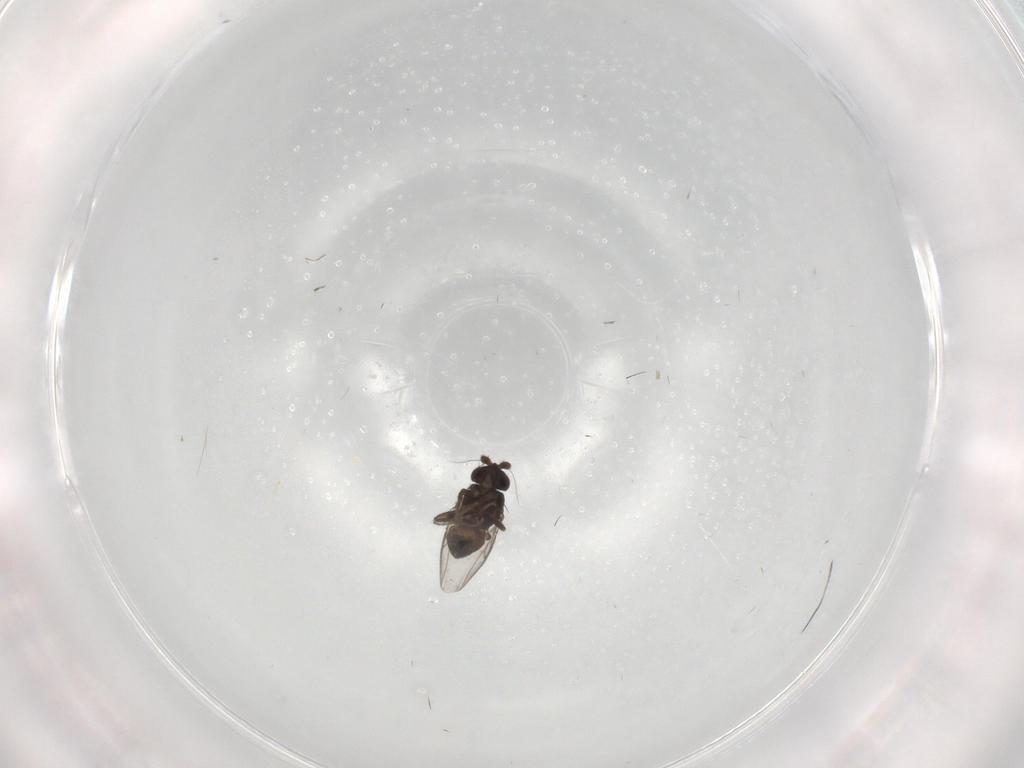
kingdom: Animalia
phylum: Arthropoda
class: Insecta
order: Diptera
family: Sphaeroceridae
